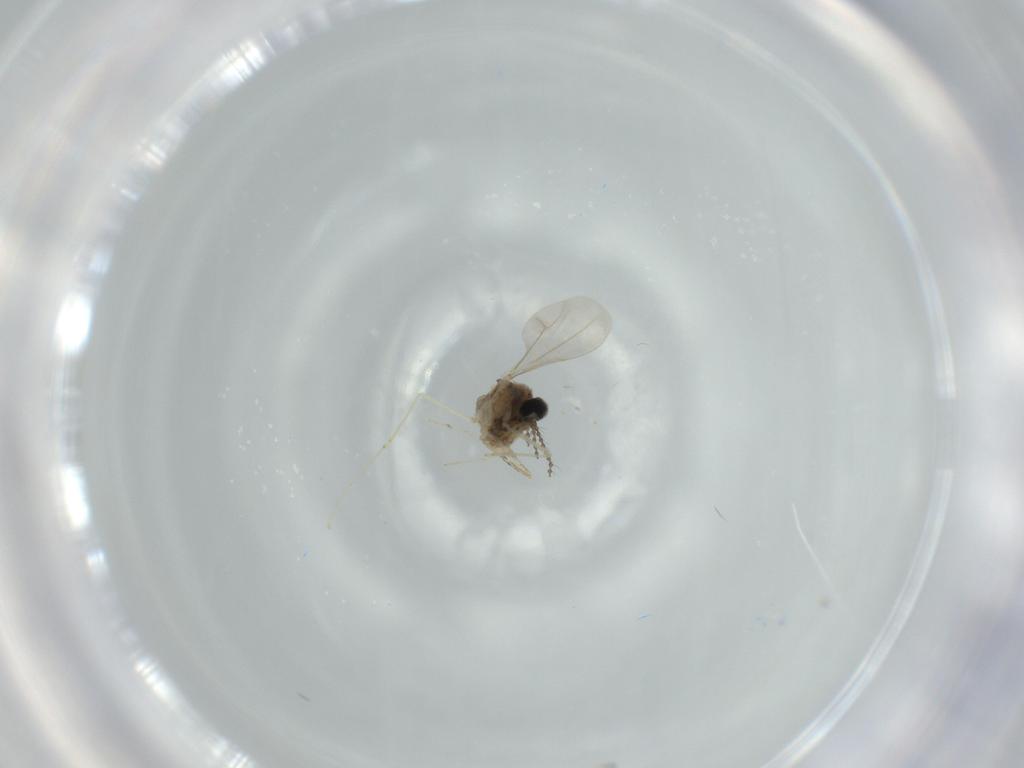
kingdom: Animalia
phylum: Arthropoda
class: Insecta
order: Diptera
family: Cecidomyiidae
